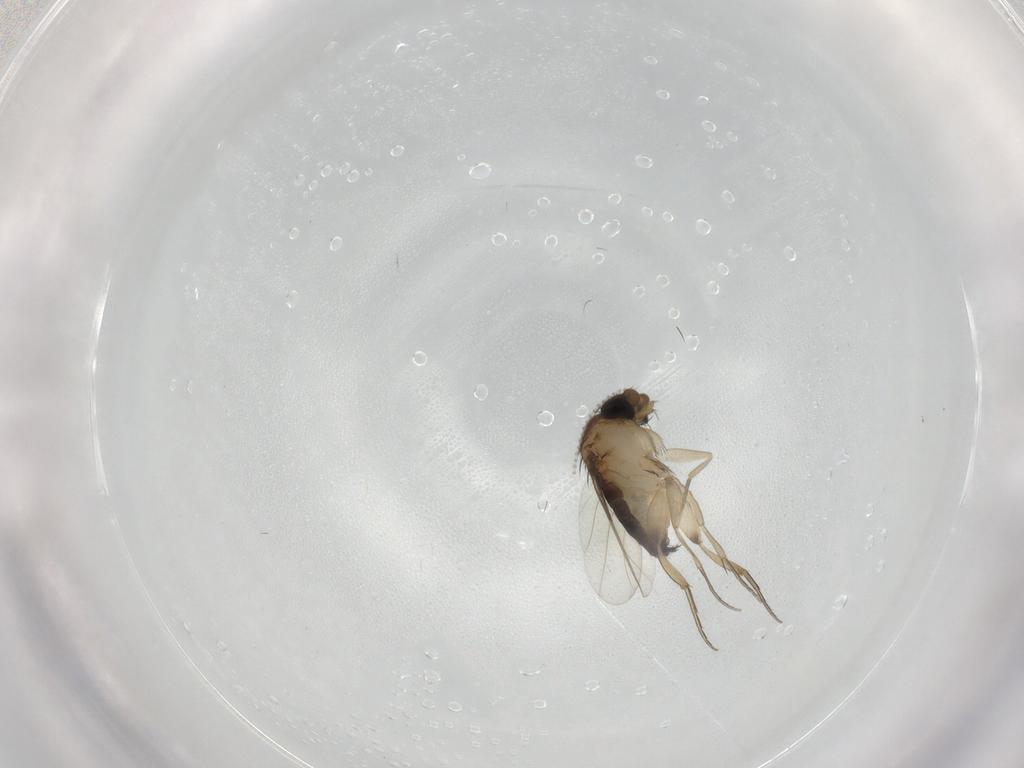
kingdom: Animalia
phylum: Arthropoda
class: Insecta
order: Diptera
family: Phoridae
